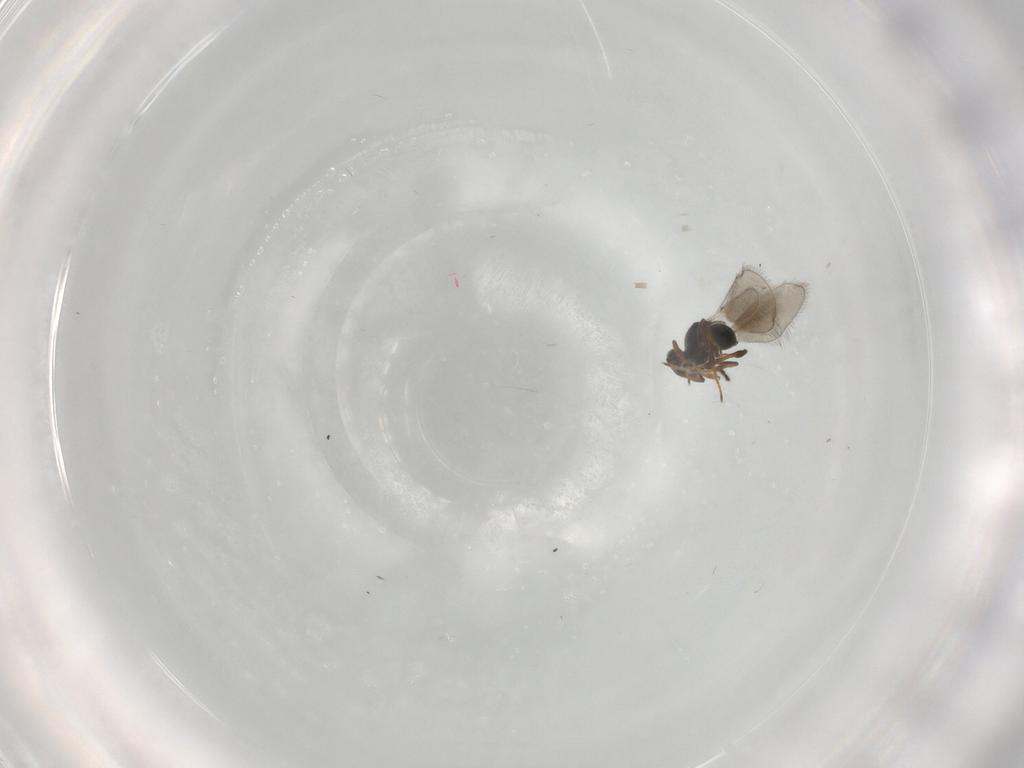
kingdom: Animalia
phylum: Arthropoda
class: Insecta
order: Hymenoptera
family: Platygastridae
